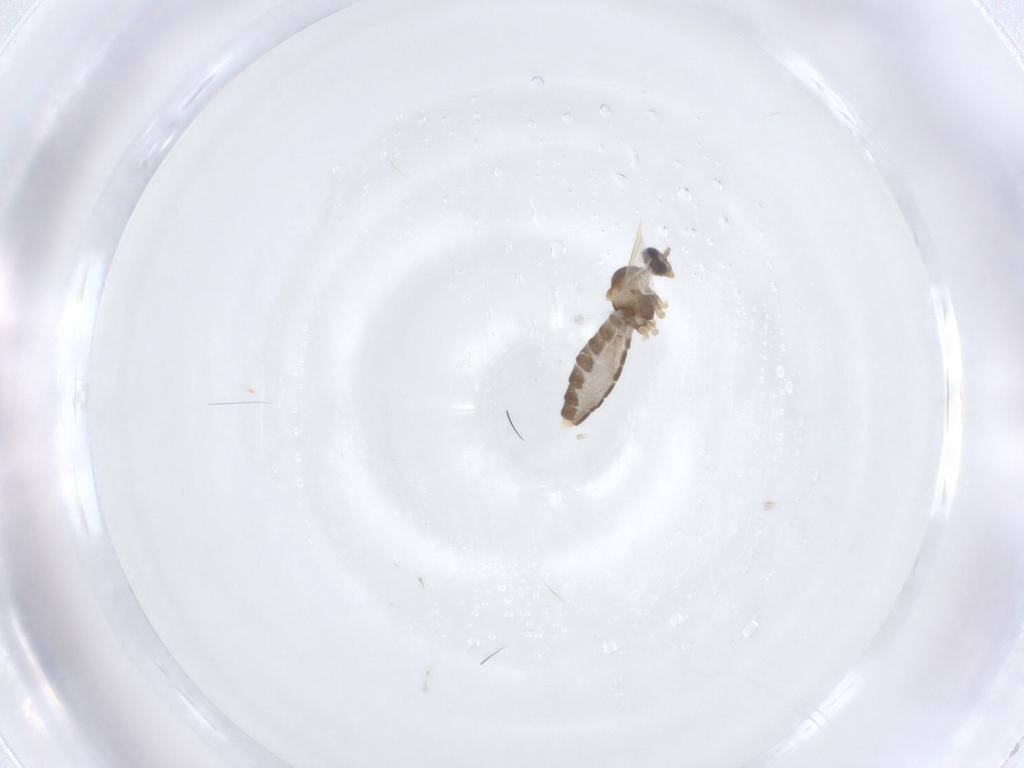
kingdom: Animalia
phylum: Arthropoda
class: Insecta
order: Diptera
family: Cecidomyiidae
